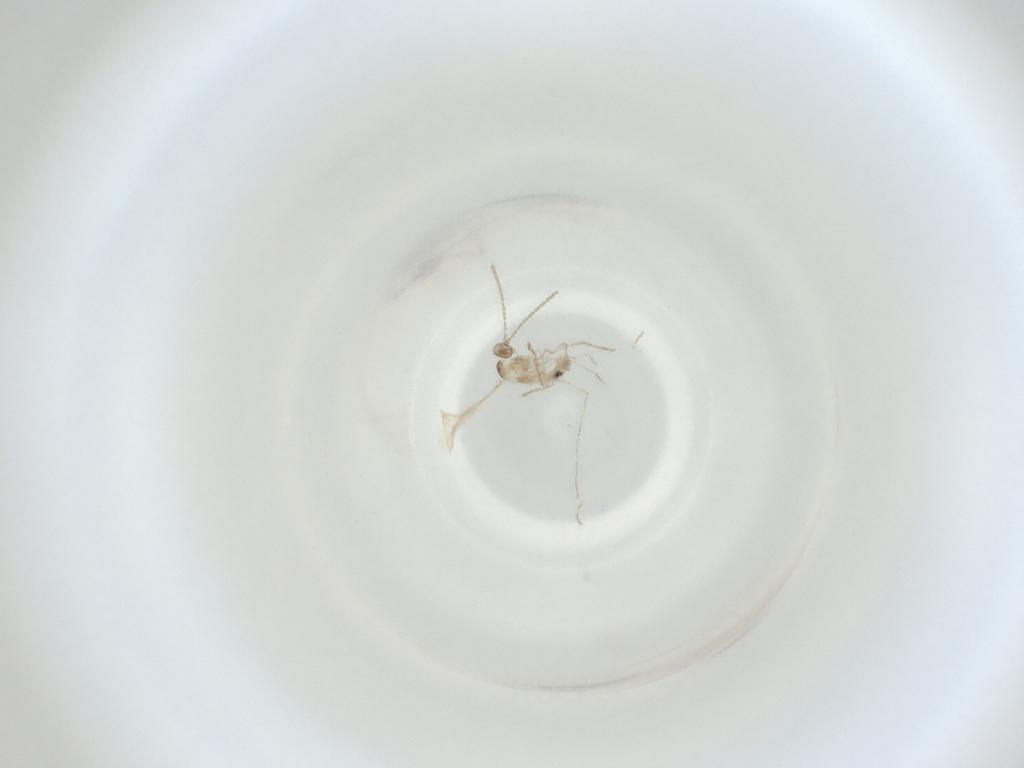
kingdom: Animalia
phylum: Arthropoda
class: Insecta
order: Diptera
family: Cecidomyiidae
